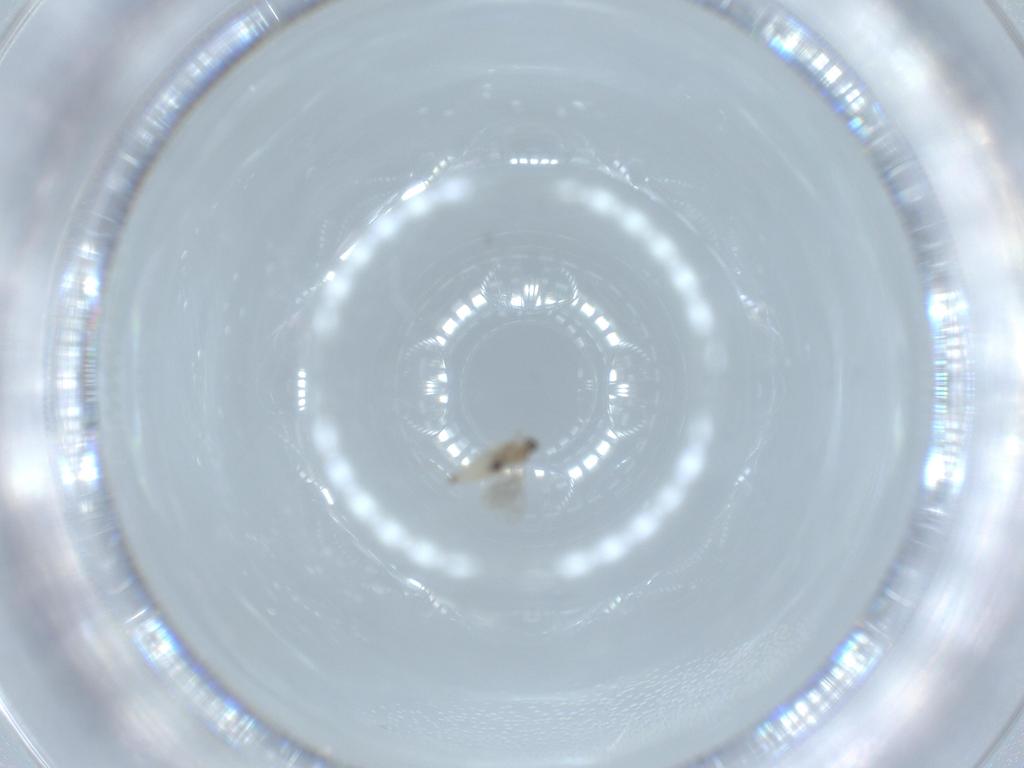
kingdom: Animalia
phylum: Arthropoda
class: Insecta
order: Diptera
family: Cecidomyiidae
